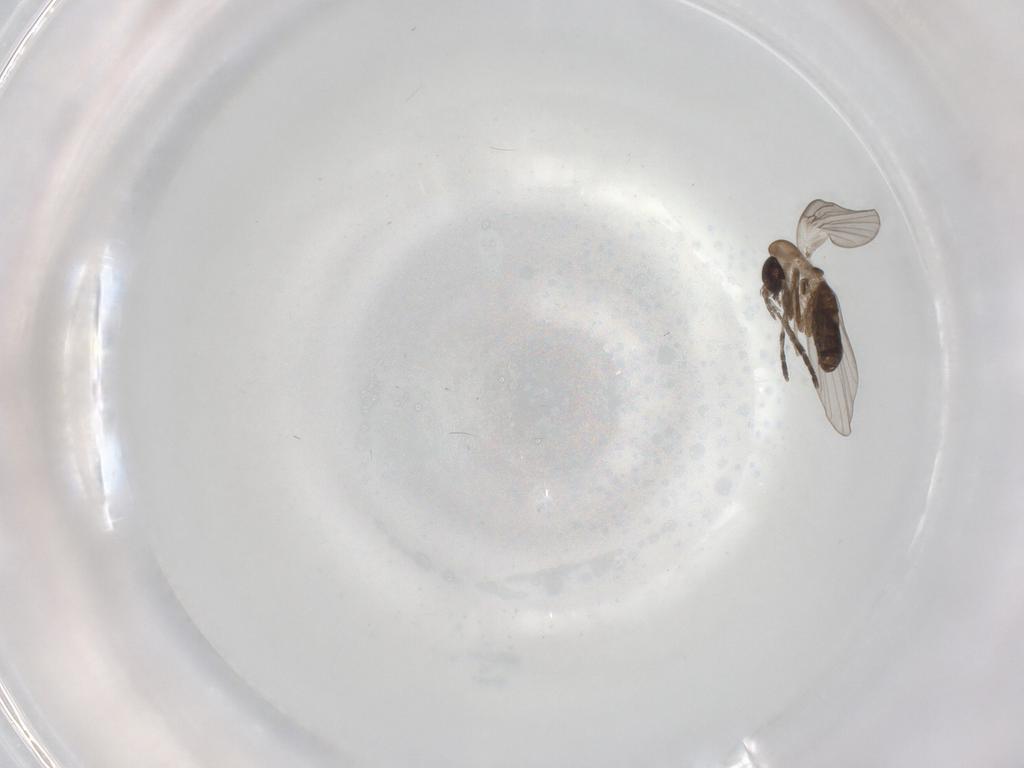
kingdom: Animalia
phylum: Arthropoda
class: Insecta
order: Diptera
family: Psychodidae
